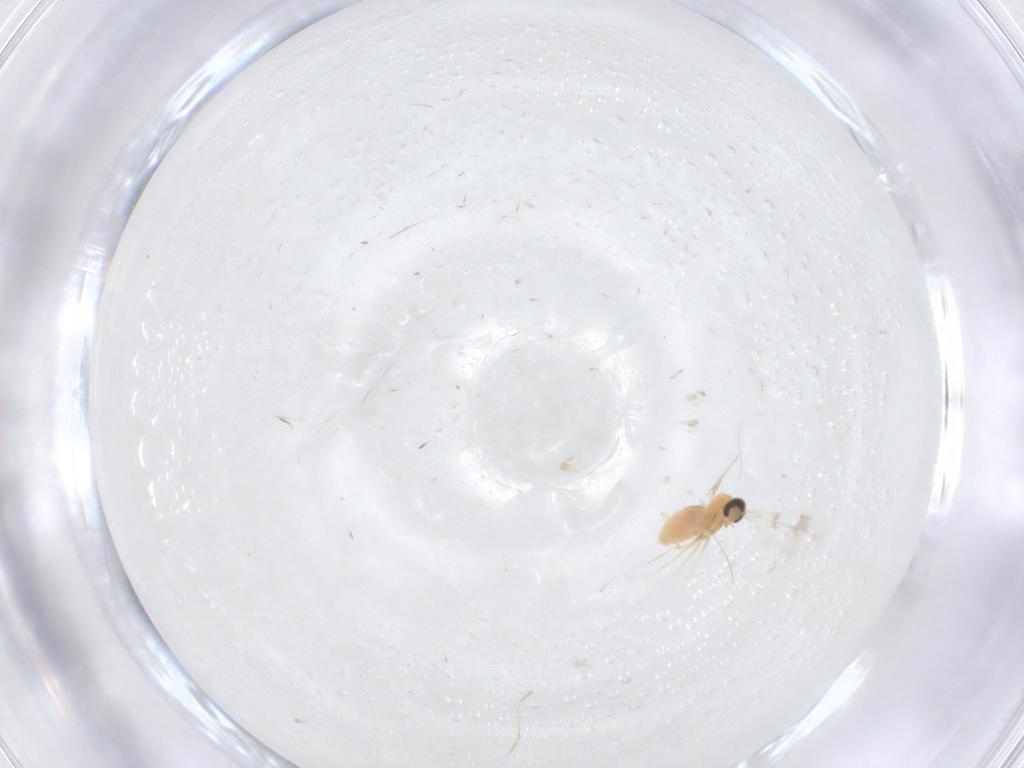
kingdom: Animalia
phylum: Arthropoda
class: Insecta
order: Diptera
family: Cecidomyiidae
